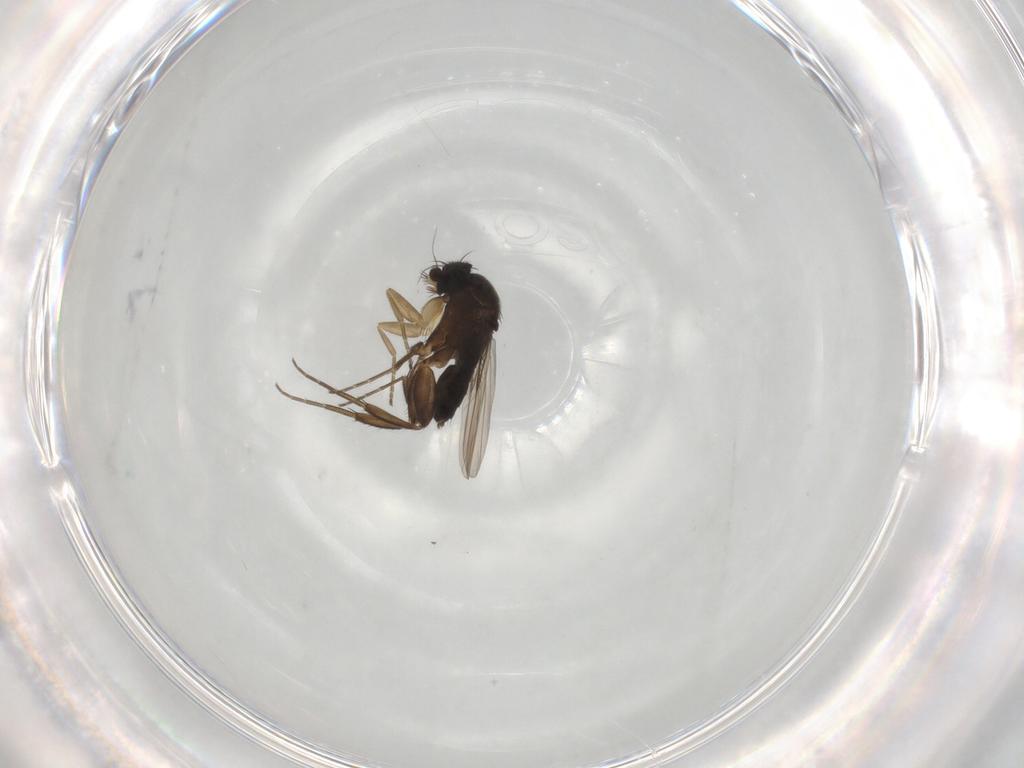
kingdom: Animalia
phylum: Arthropoda
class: Insecta
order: Diptera
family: Phoridae
